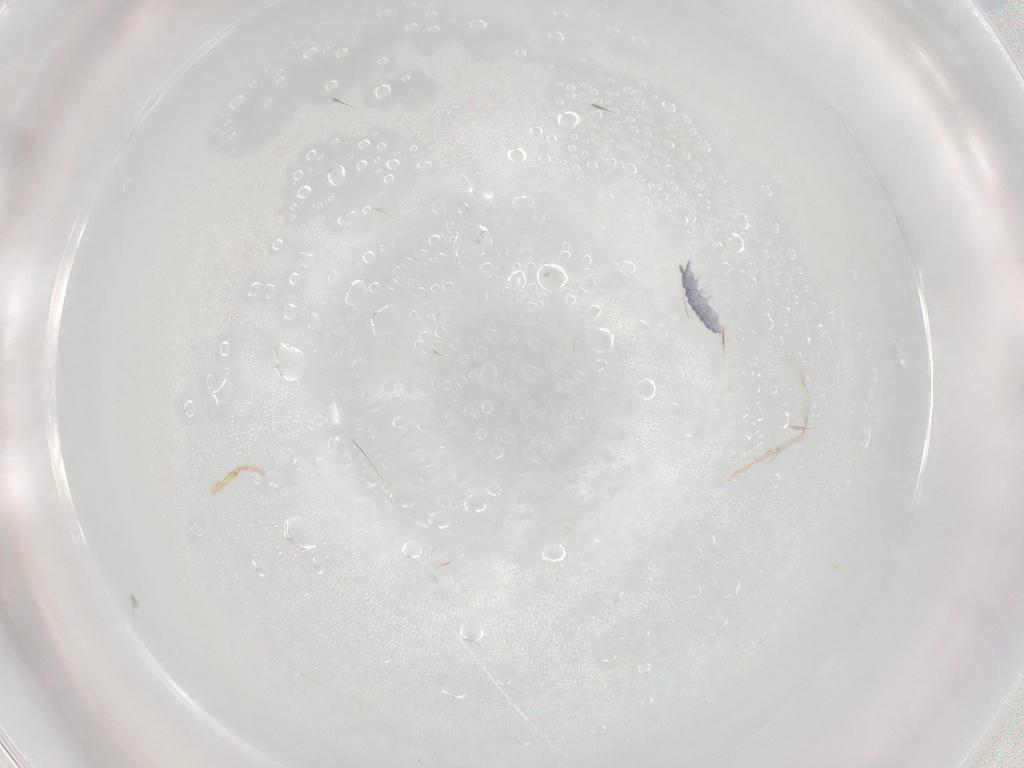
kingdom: Animalia
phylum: Arthropoda
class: Collembola
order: Poduromorpha
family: Hypogastruridae
